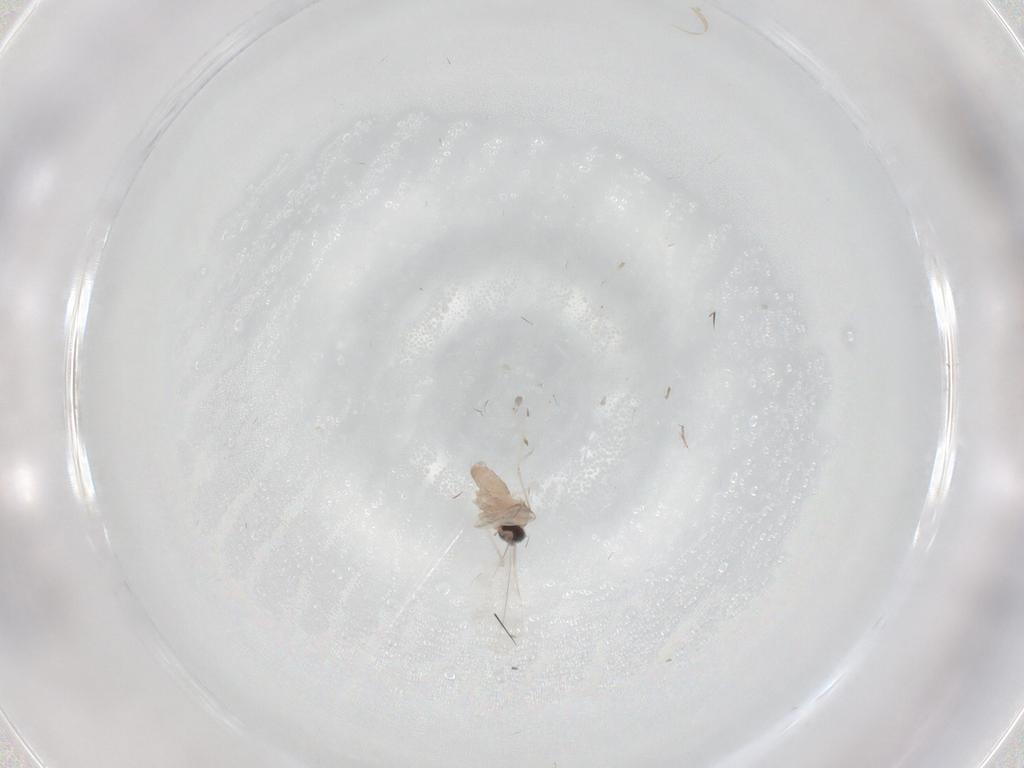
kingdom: Animalia
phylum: Arthropoda
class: Insecta
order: Diptera
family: Cecidomyiidae
